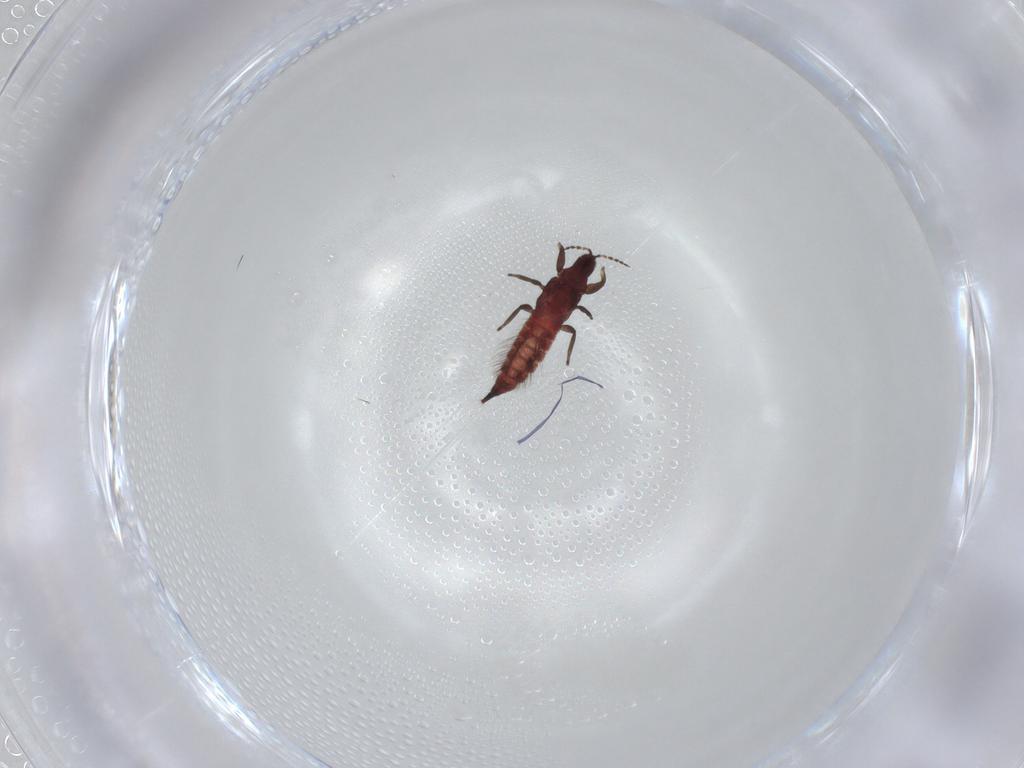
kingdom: Animalia
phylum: Arthropoda
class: Insecta
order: Thysanoptera
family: Phlaeothripidae
